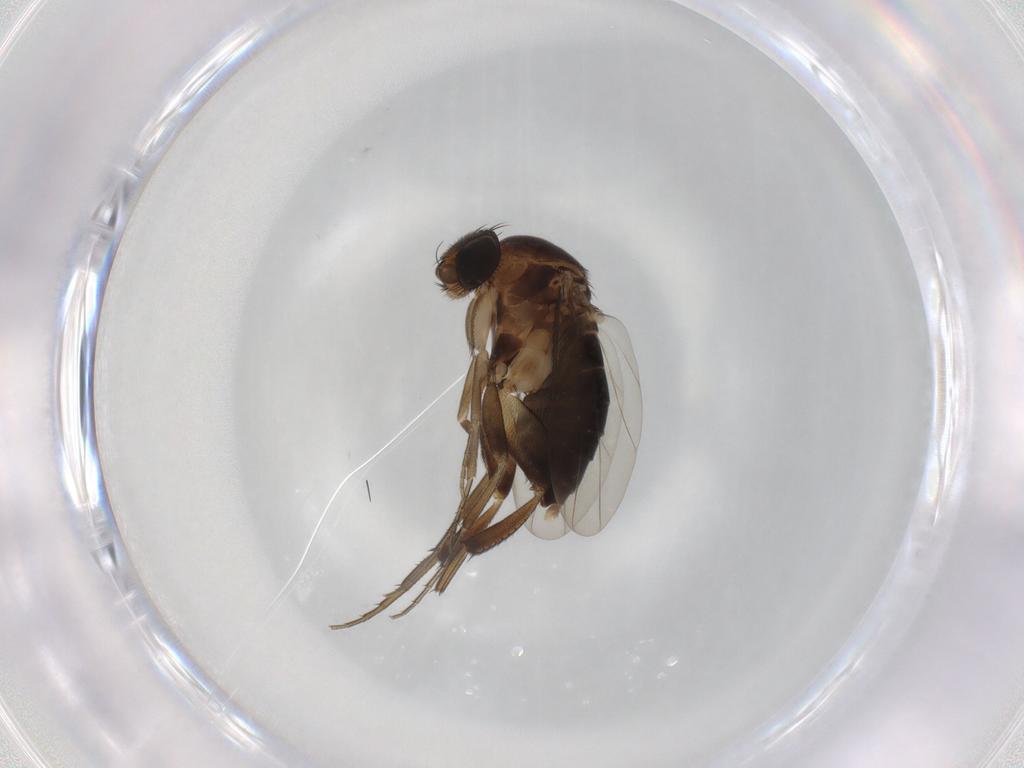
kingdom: Animalia
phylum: Arthropoda
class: Insecta
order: Diptera
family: Phoridae
